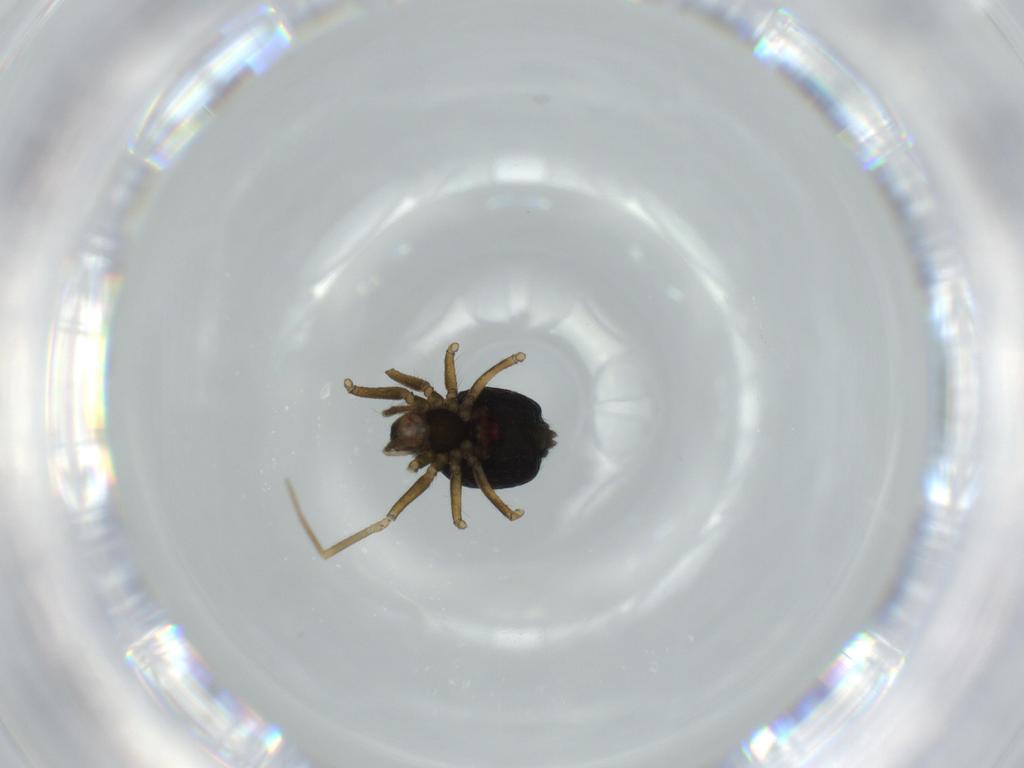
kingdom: Animalia
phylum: Arthropoda
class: Arachnida
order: Araneae
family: Linyphiidae
